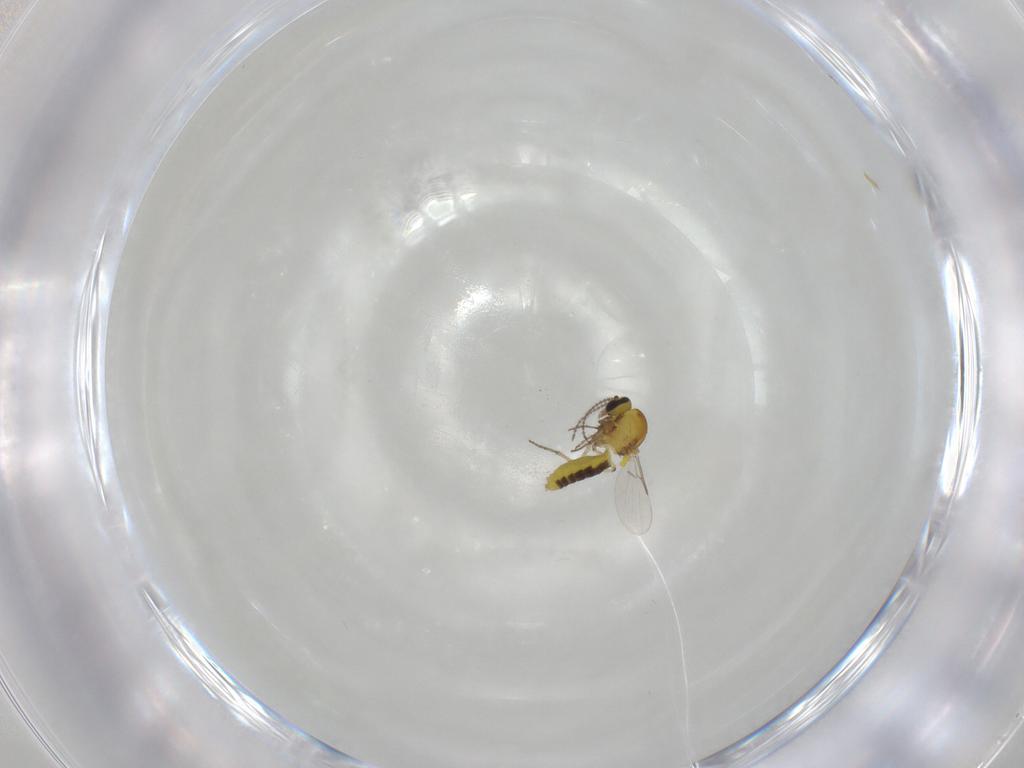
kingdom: Animalia
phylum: Arthropoda
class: Insecta
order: Diptera
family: Ceratopogonidae
